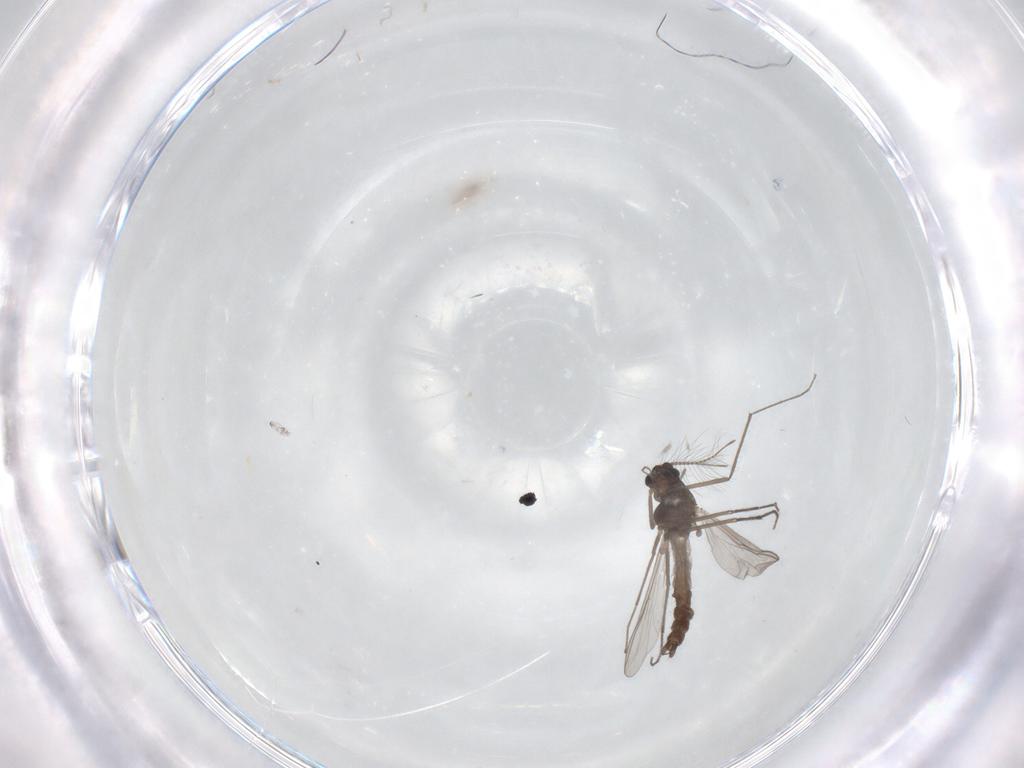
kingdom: Animalia
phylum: Arthropoda
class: Insecta
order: Diptera
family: Chironomidae
